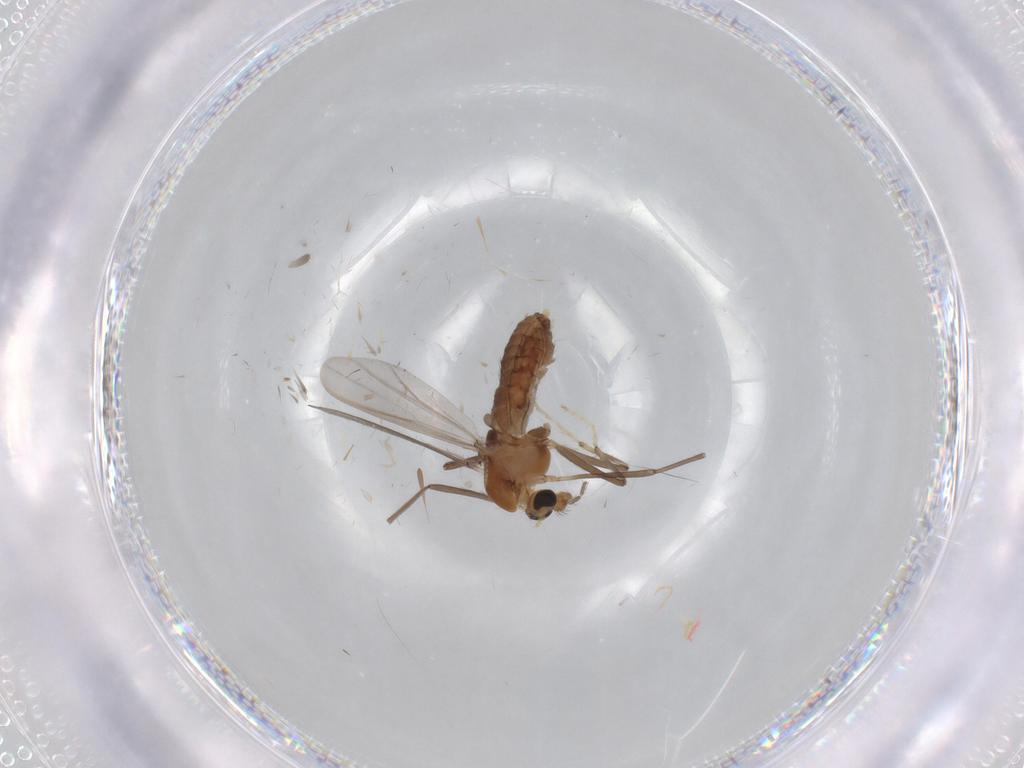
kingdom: Animalia
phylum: Arthropoda
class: Insecta
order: Diptera
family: Chironomidae
